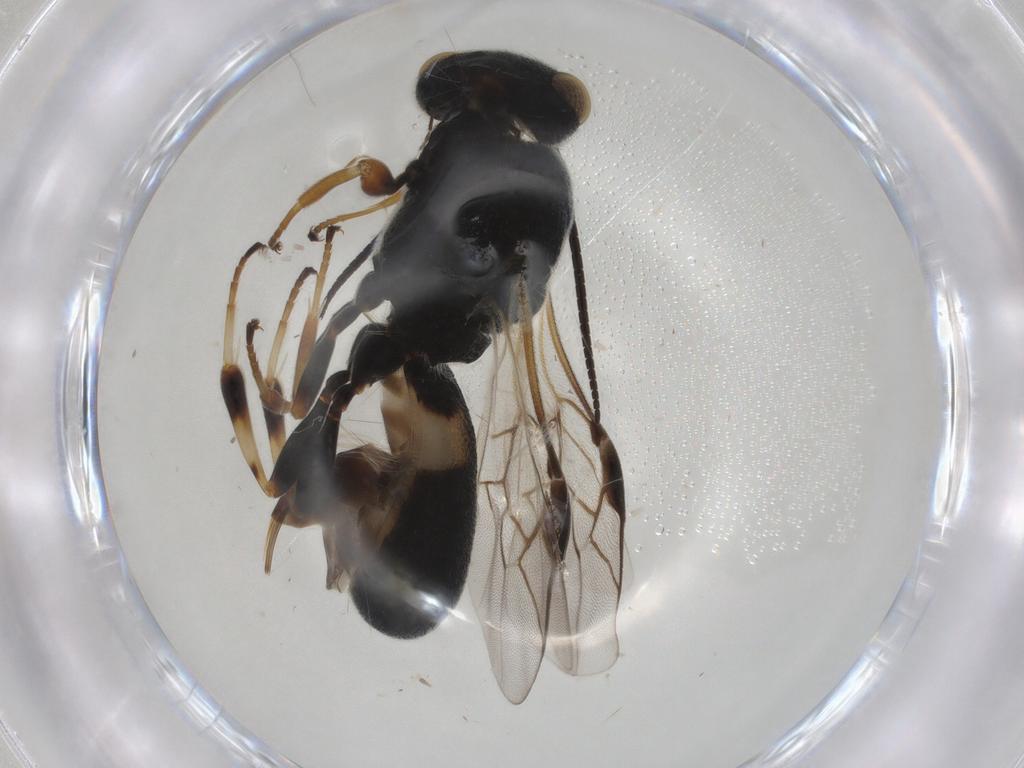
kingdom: Animalia
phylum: Arthropoda
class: Insecta
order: Hymenoptera
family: Braconidae
